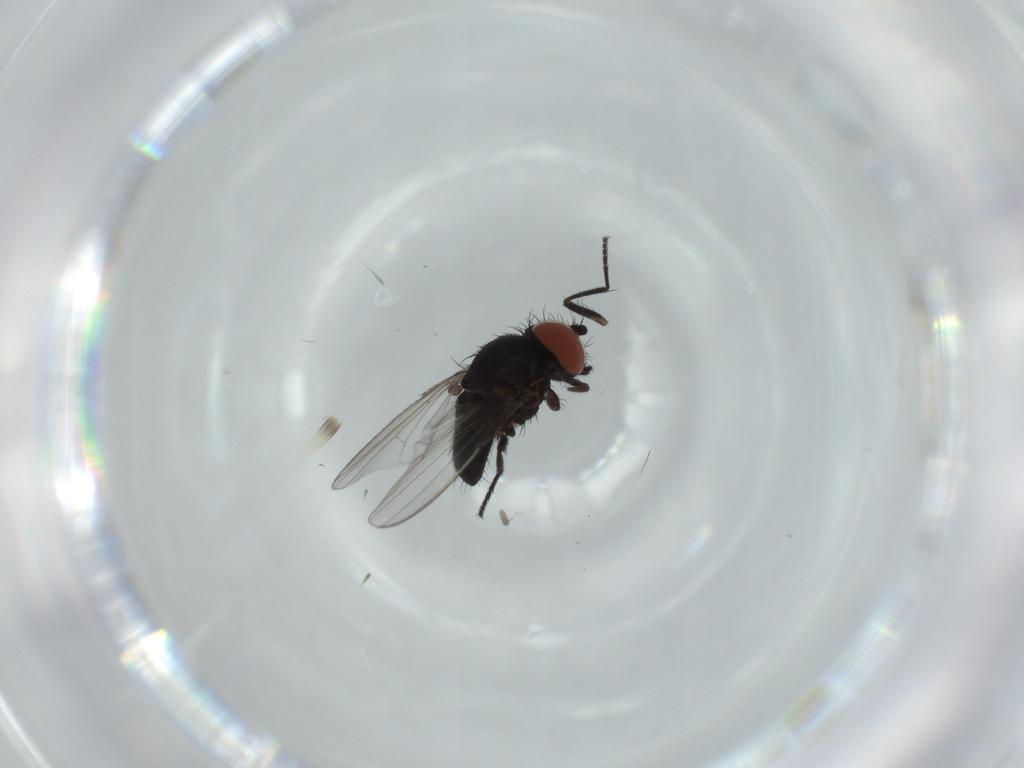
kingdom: Animalia
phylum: Arthropoda
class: Insecta
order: Diptera
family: Milichiidae
